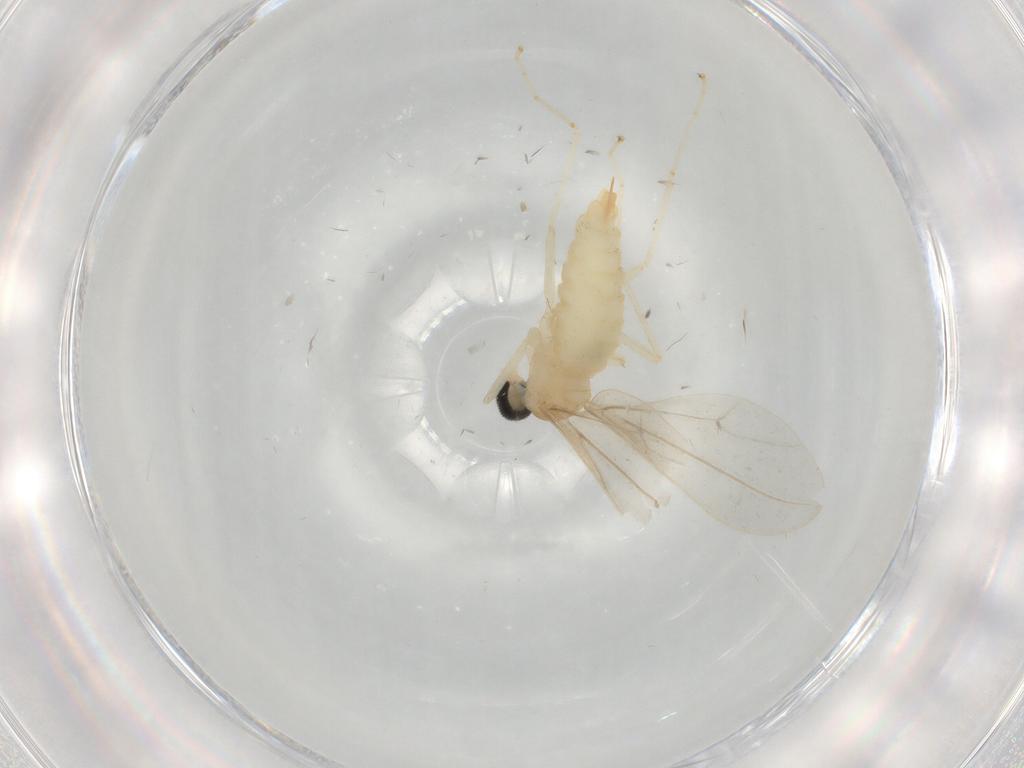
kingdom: Animalia
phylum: Arthropoda
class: Insecta
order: Diptera
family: Cecidomyiidae
